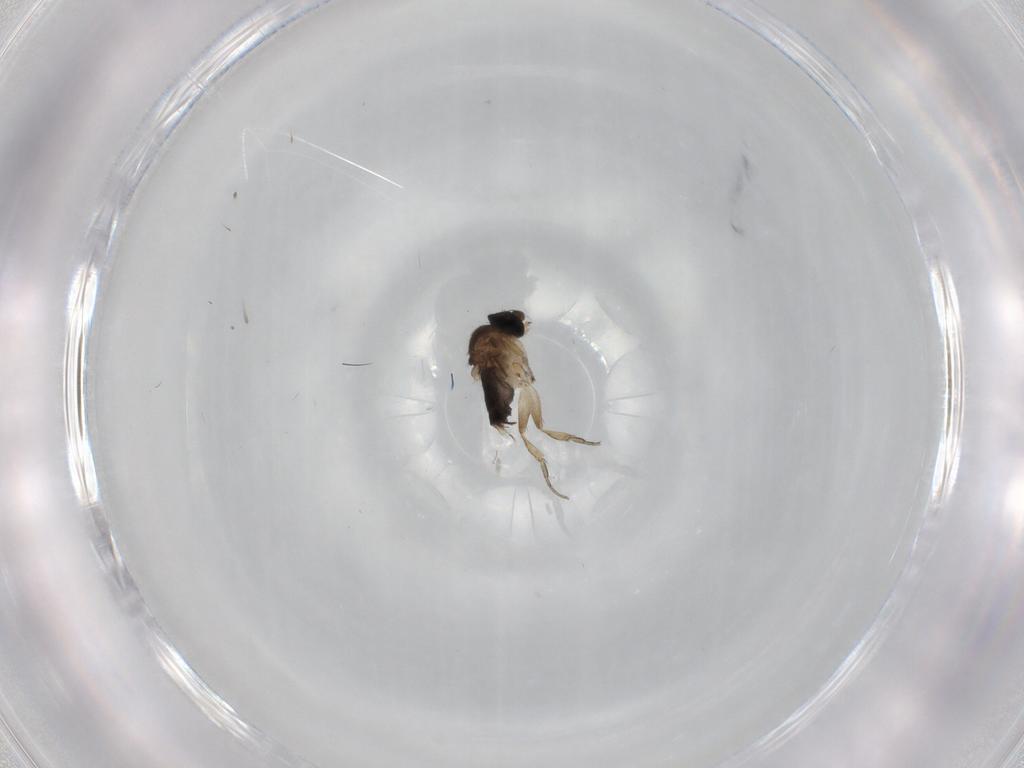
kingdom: Animalia
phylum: Arthropoda
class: Insecta
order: Diptera
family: Phoridae
